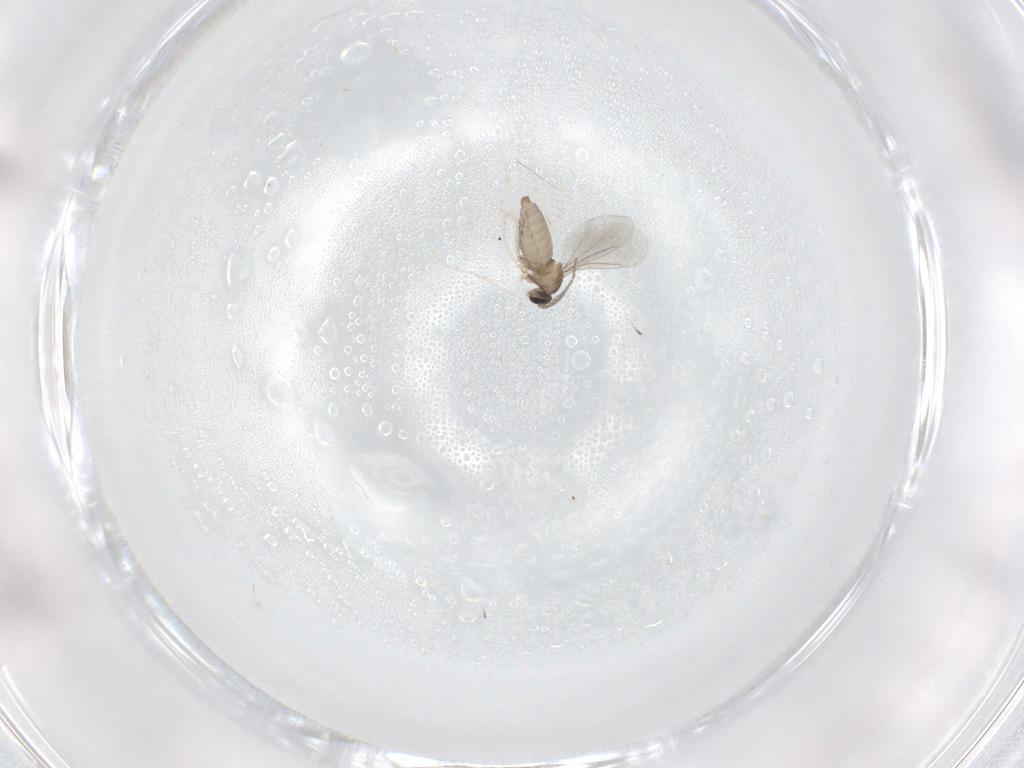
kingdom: Animalia
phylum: Arthropoda
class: Insecta
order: Diptera
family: Cecidomyiidae
